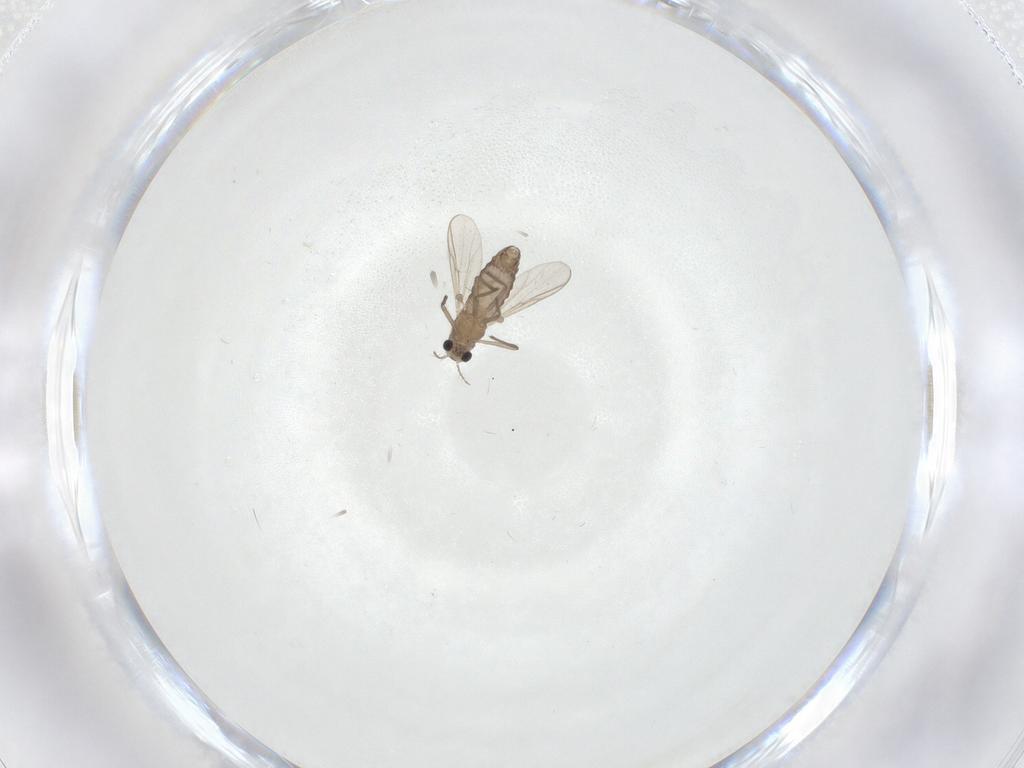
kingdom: Animalia
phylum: Arthropoda
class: Insecta
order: Diptera
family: Chironomidae
